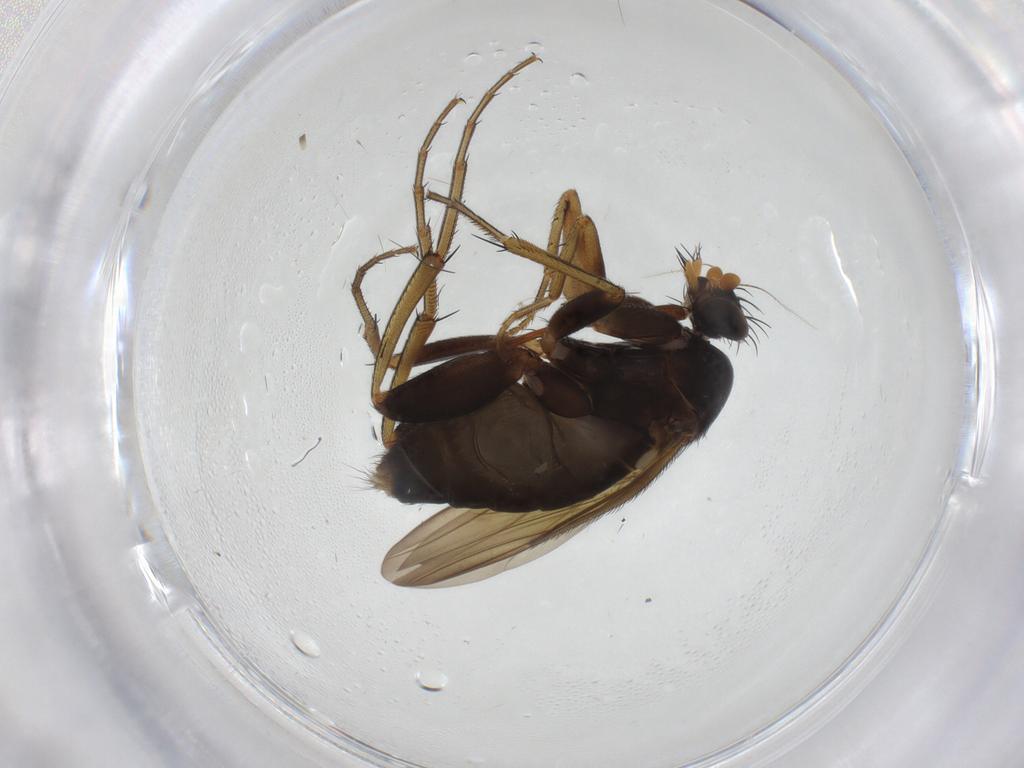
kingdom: Animalia
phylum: Arthropoda
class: Insecta
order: Diptera
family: Phoridae
